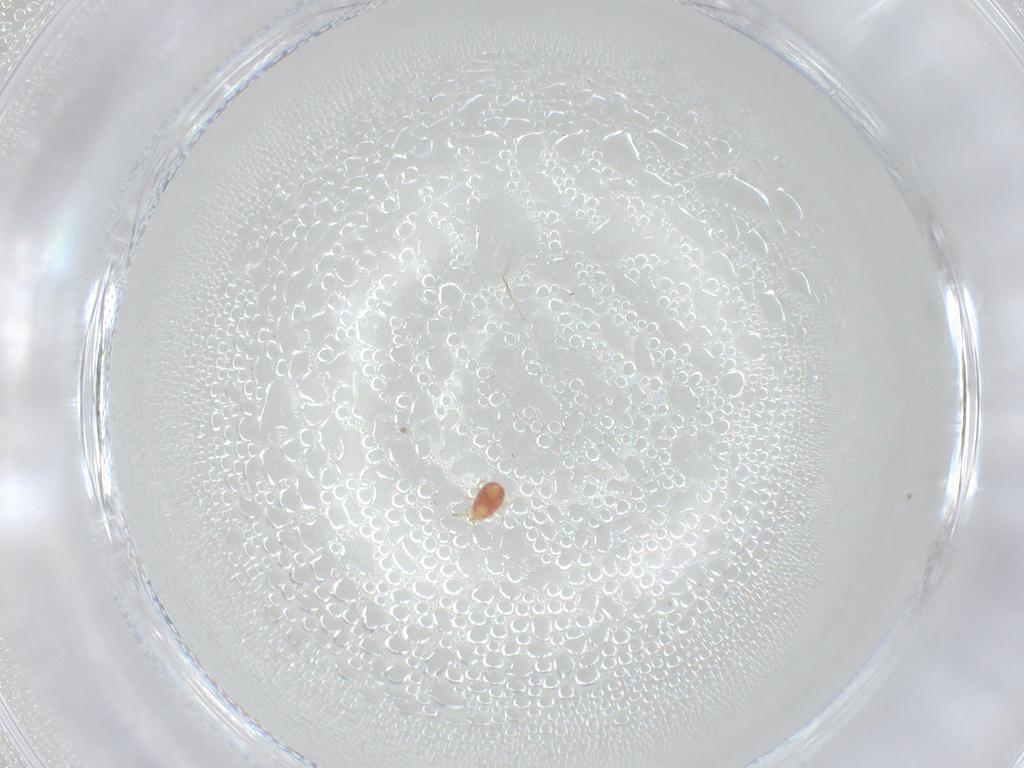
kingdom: Animalia
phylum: Arthropoda
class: Arachnida
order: Mesostigmata
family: Phytoseiidae
